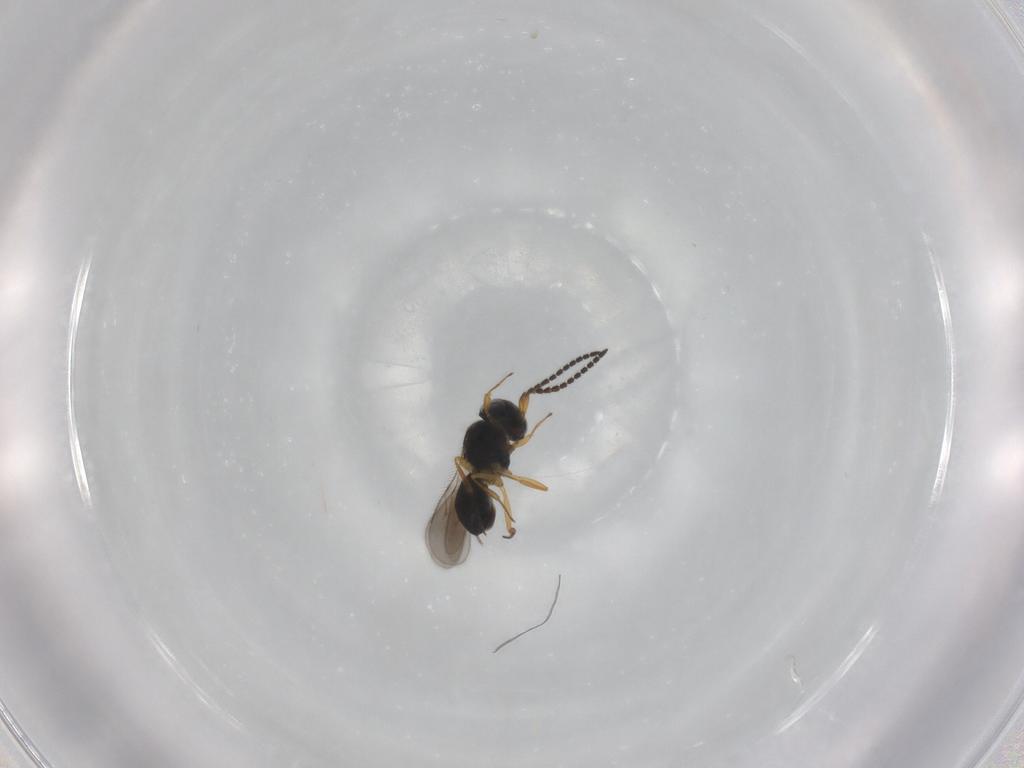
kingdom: Animalia
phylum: Arthropoda
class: Insecta
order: Hymenoptera
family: Scelionidae
